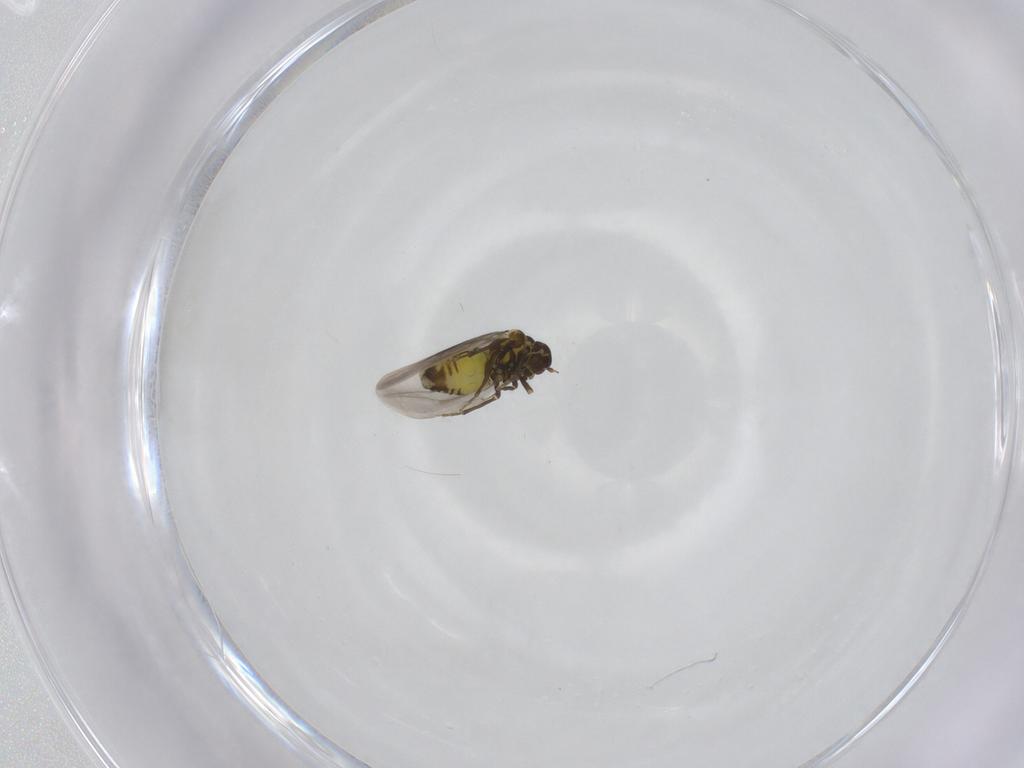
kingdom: Animalia
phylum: Arthropoda
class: Insecta
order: Hemiptera
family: Aleyrodidae
